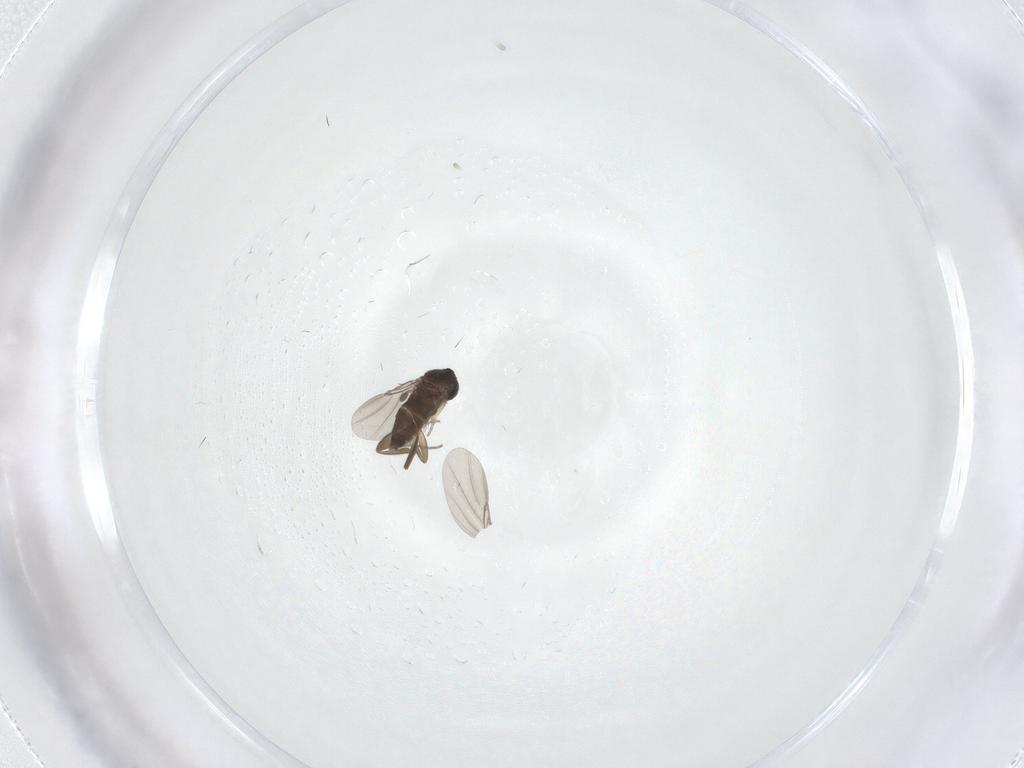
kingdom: Animalia
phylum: Arthropoda
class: Insecta
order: Diptera
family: Phoridae
